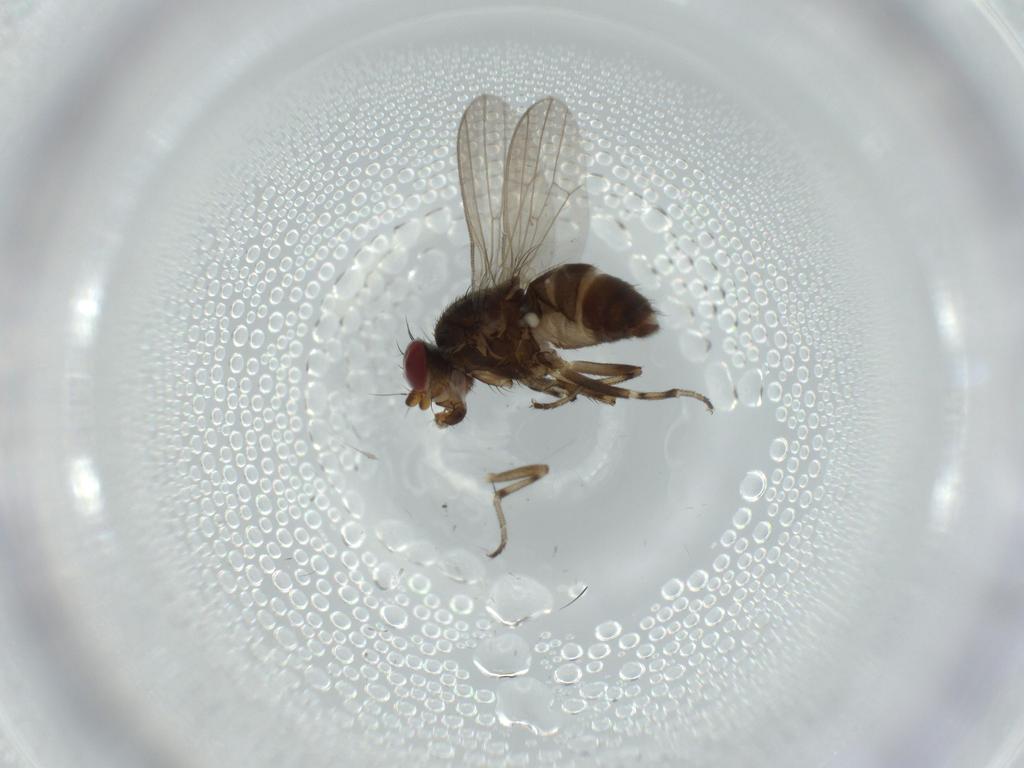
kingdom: Animalia
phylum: Arthropoda
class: Insecta
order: Diptera
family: Heleomyzidae
